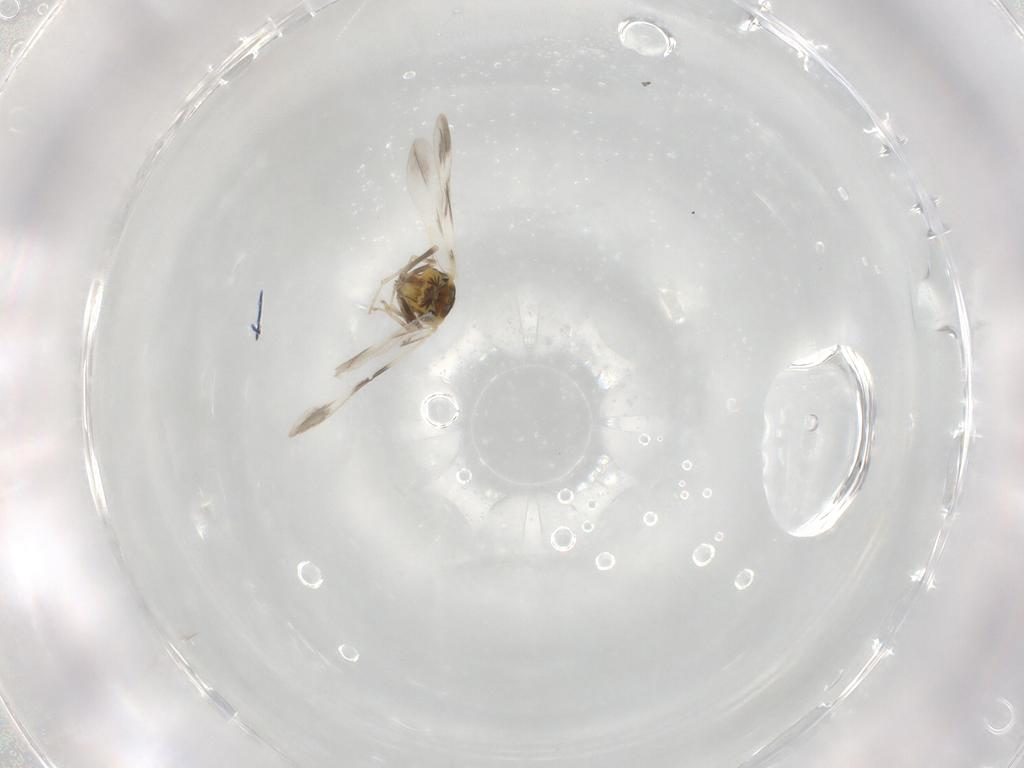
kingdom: Animalia
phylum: Arthropoda
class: Insecta
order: Hemiptera
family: Aleyrodidae
